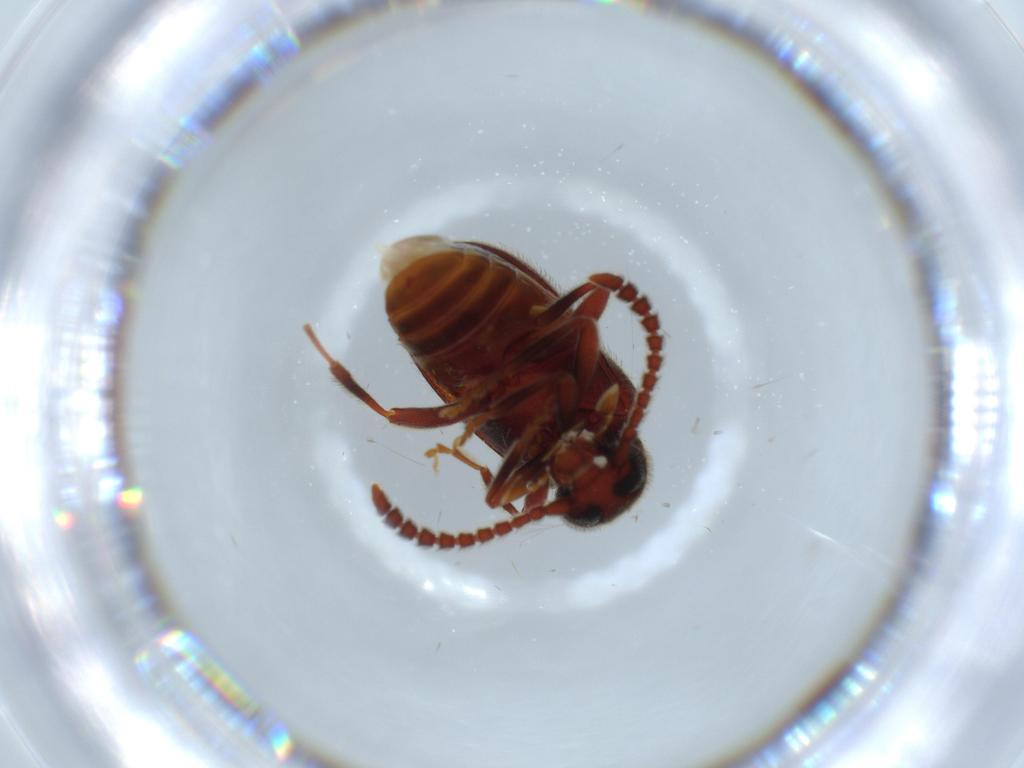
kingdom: Animalia
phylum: Arthropoda
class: Insecta
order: Coleoptera
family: Aderidae
